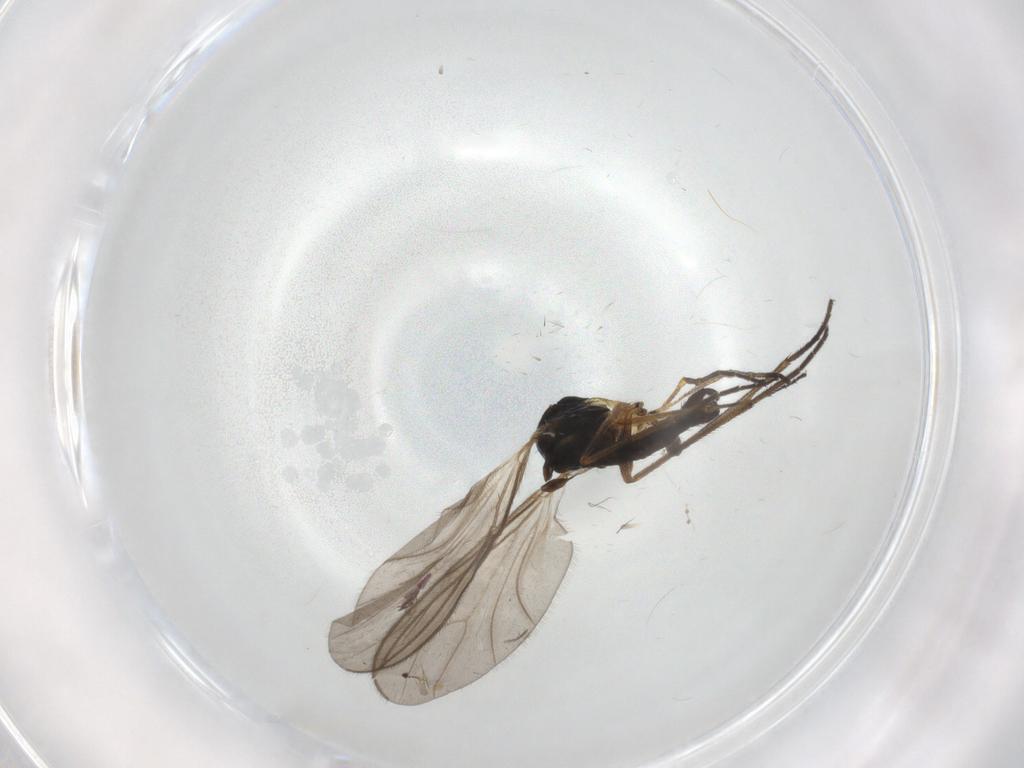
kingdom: Animalia
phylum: Arthropoda
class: Insecta
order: Diptera
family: Sciaridae
